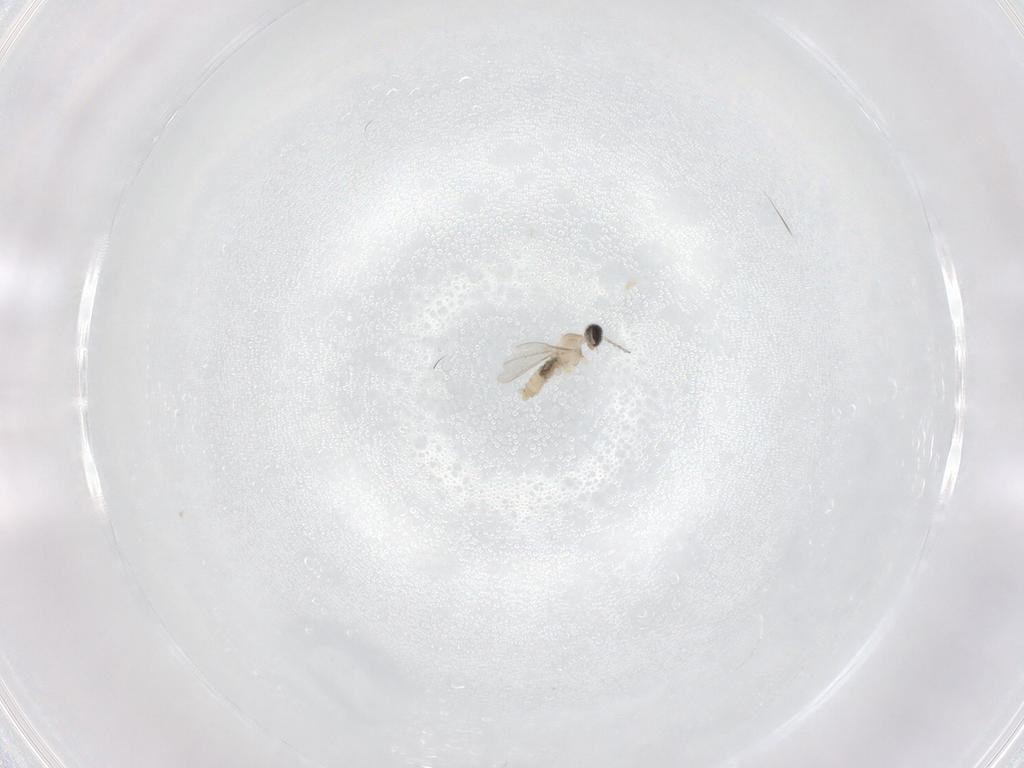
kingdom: Animalia
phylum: Arthropoda
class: Insecta
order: Diptera
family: Cecidomyiidae
